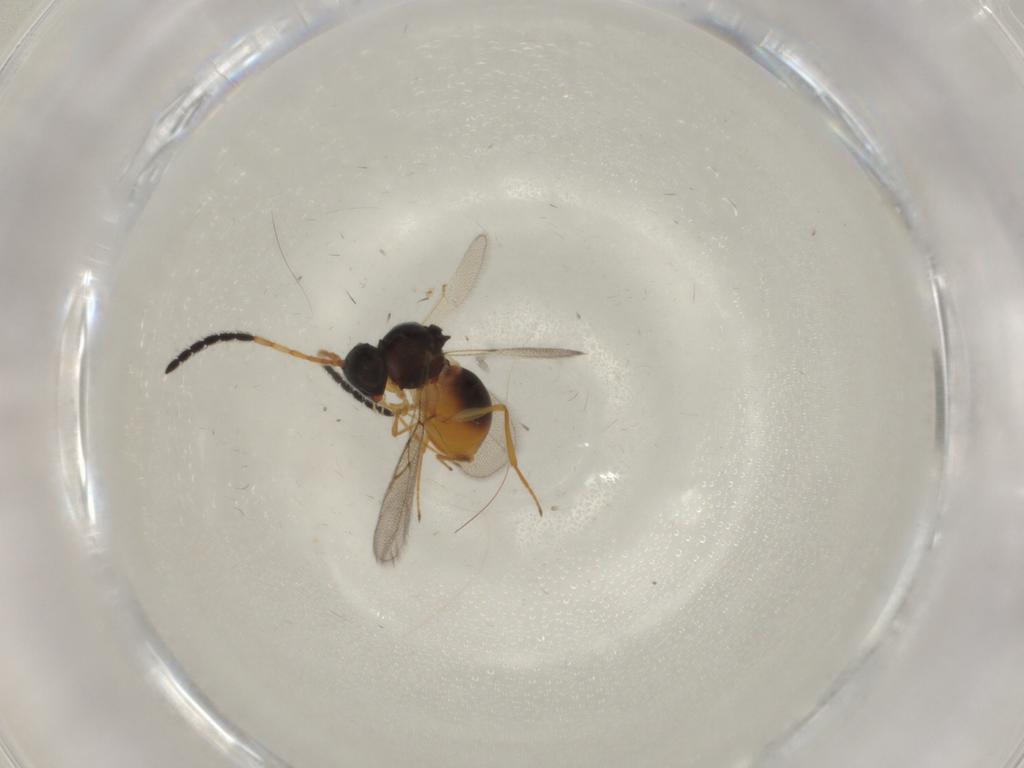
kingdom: Animalia
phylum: Arthropoda
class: Insecta
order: Hymenoptera
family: Figitidae
